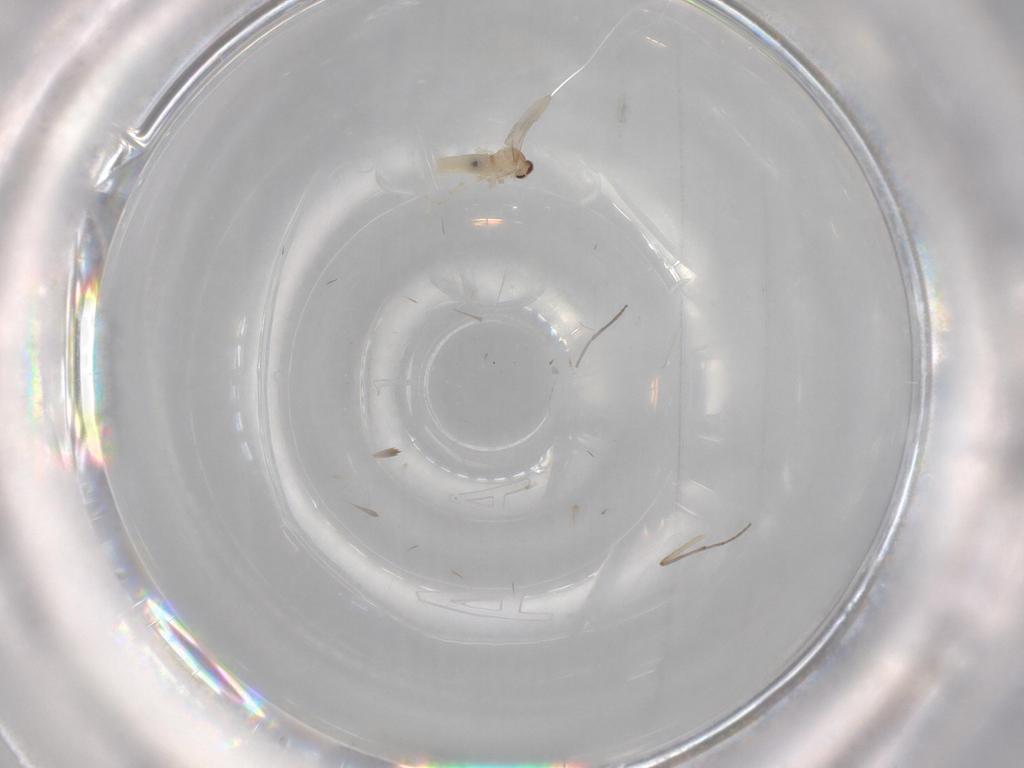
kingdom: Animalia
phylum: Arthropoda
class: Insecta
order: Diptera
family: Cecidomyiidae
